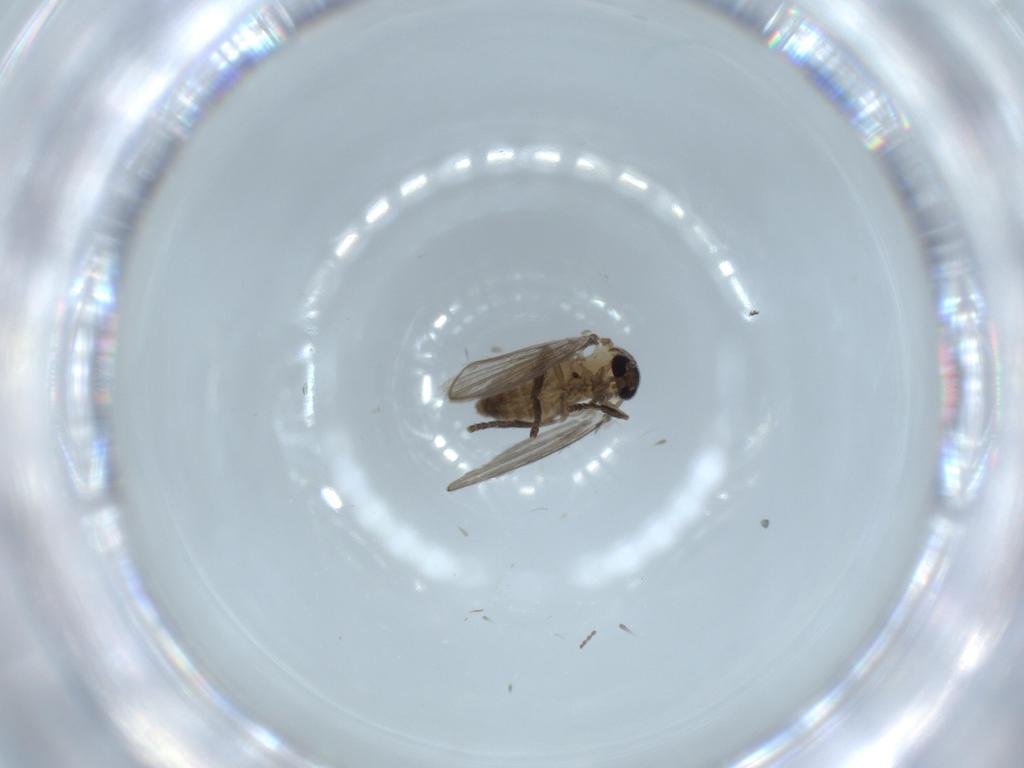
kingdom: Animalia
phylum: Arthropoda
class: Insecta
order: Diptera
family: Psychodidae
